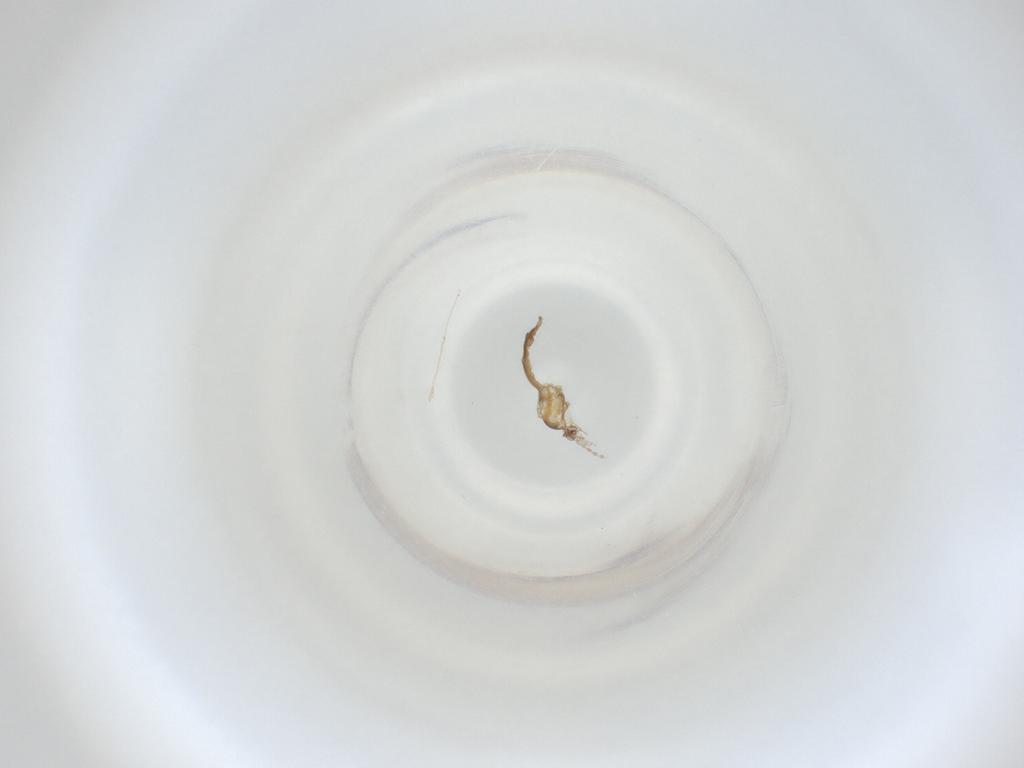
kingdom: Animalia
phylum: Arthropoda
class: Insecta
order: Diptera
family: Cecidomyiidae
